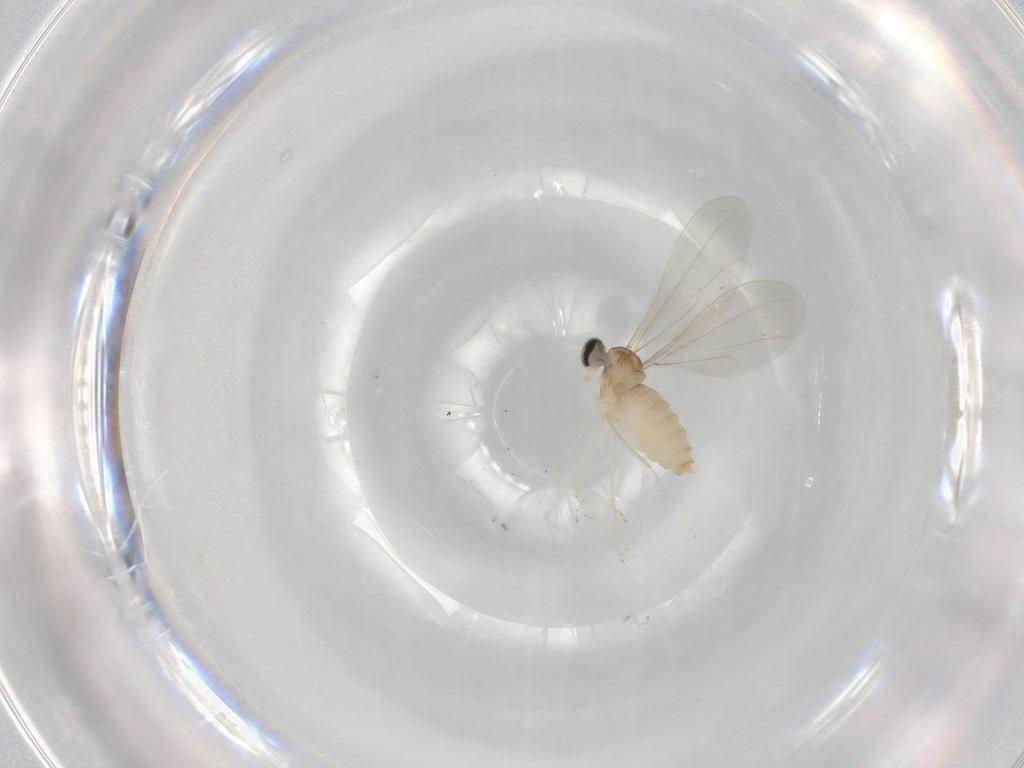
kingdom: Animalia
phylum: Arthropoda
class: Insecta
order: Diptera
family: Cecidomyiidae
